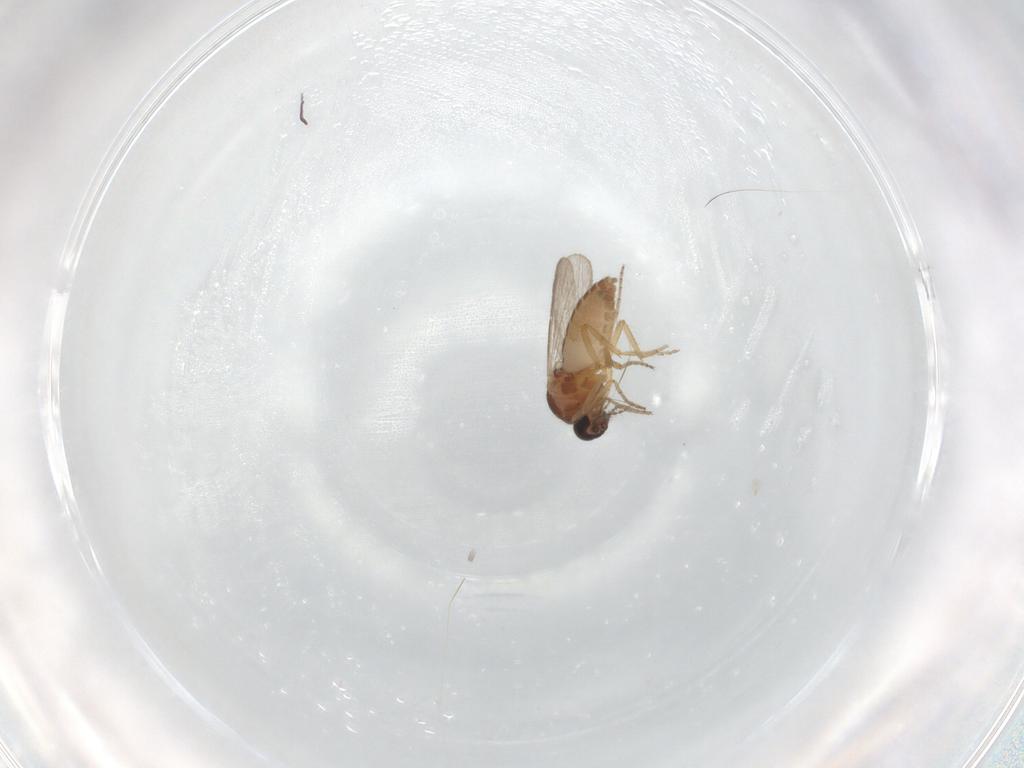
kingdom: Animalia
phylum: Arthropoda
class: Insecta
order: Diptera
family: Ceratopogonidae
